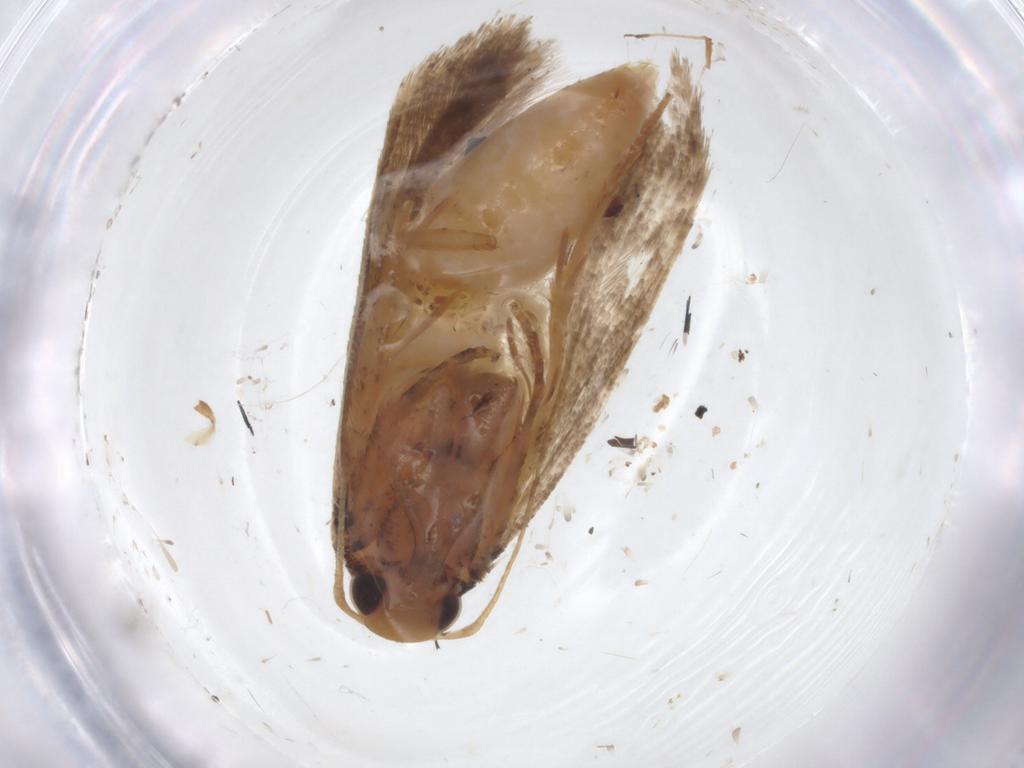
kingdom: Animalia
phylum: Arthropoda
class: Insecta
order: Lepidoptera
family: Gelechiidae
